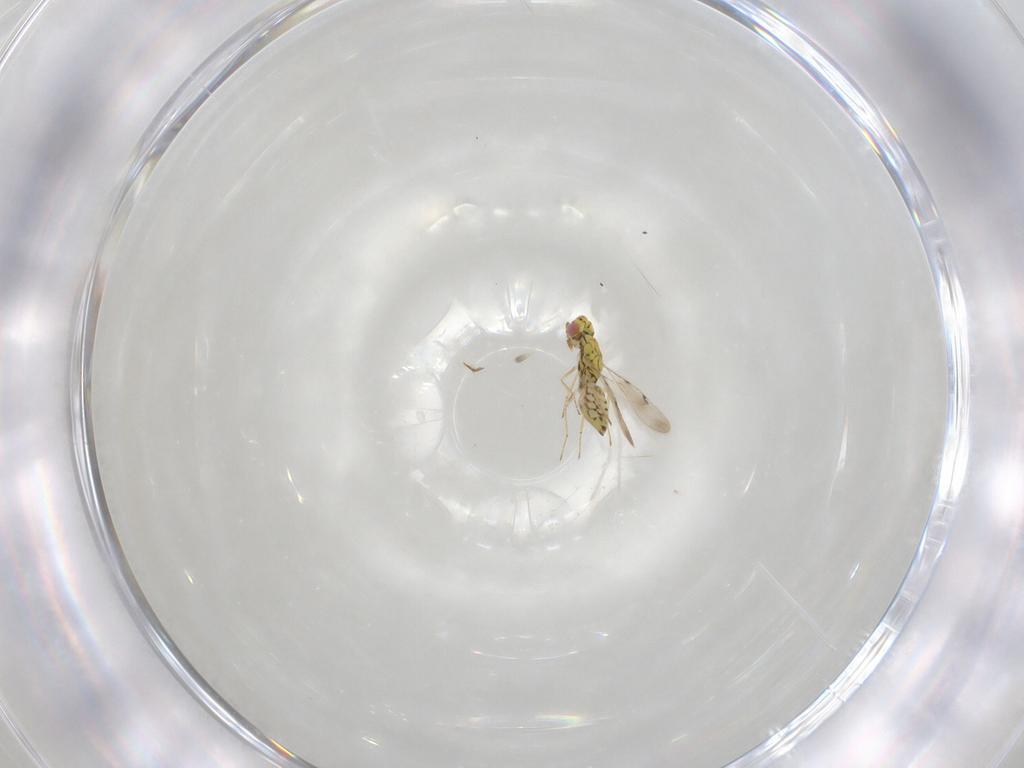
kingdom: Animalia
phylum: Arthropoda
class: Insecta
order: Hymenoptera
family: Eulophidae
